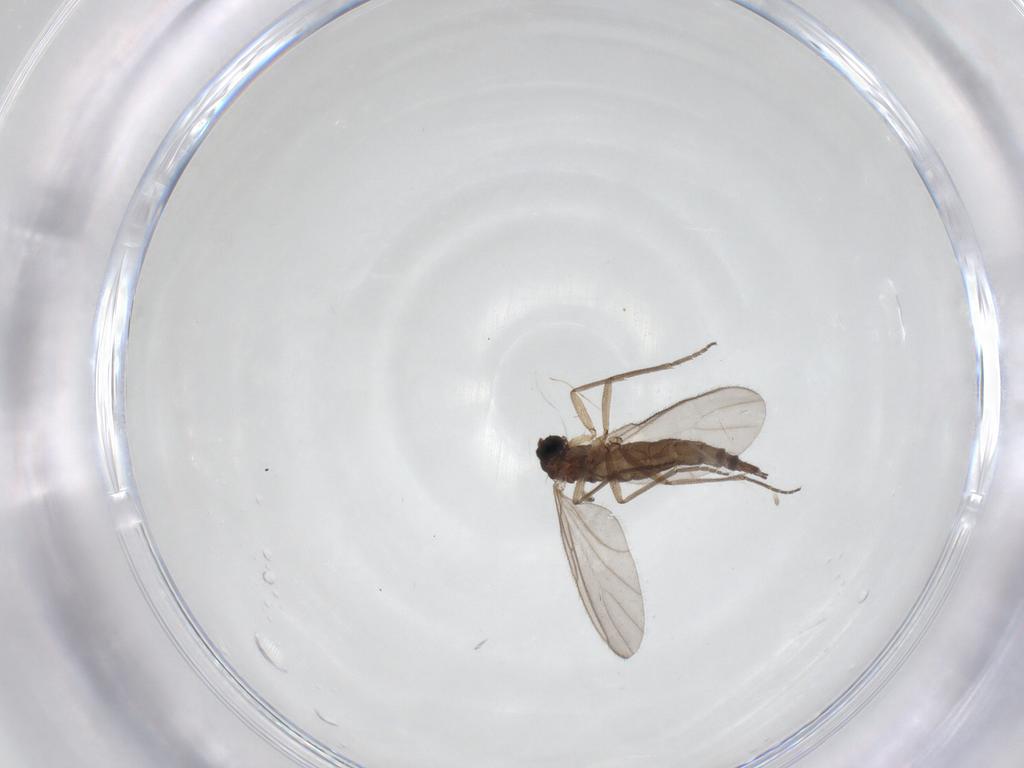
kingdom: Animalia
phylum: Arthropoda
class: Insecta
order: Diptera
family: Sciaridae
